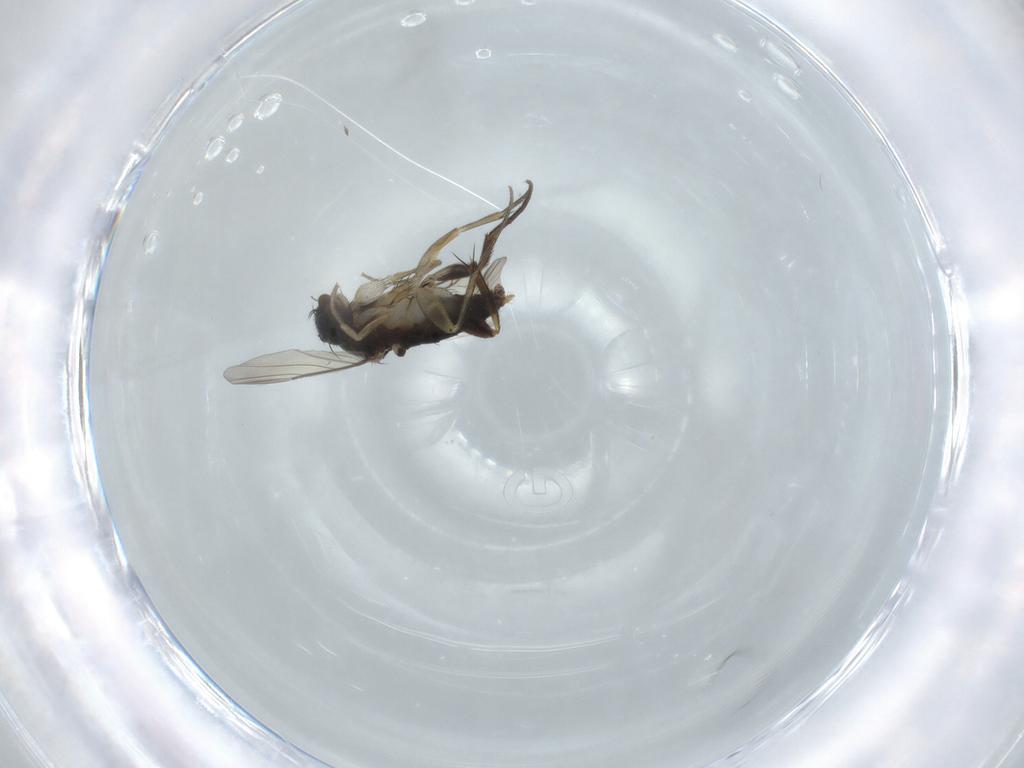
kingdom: Animalia
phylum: Arthropoda
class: Insecta
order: Diptera
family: Phoridae
